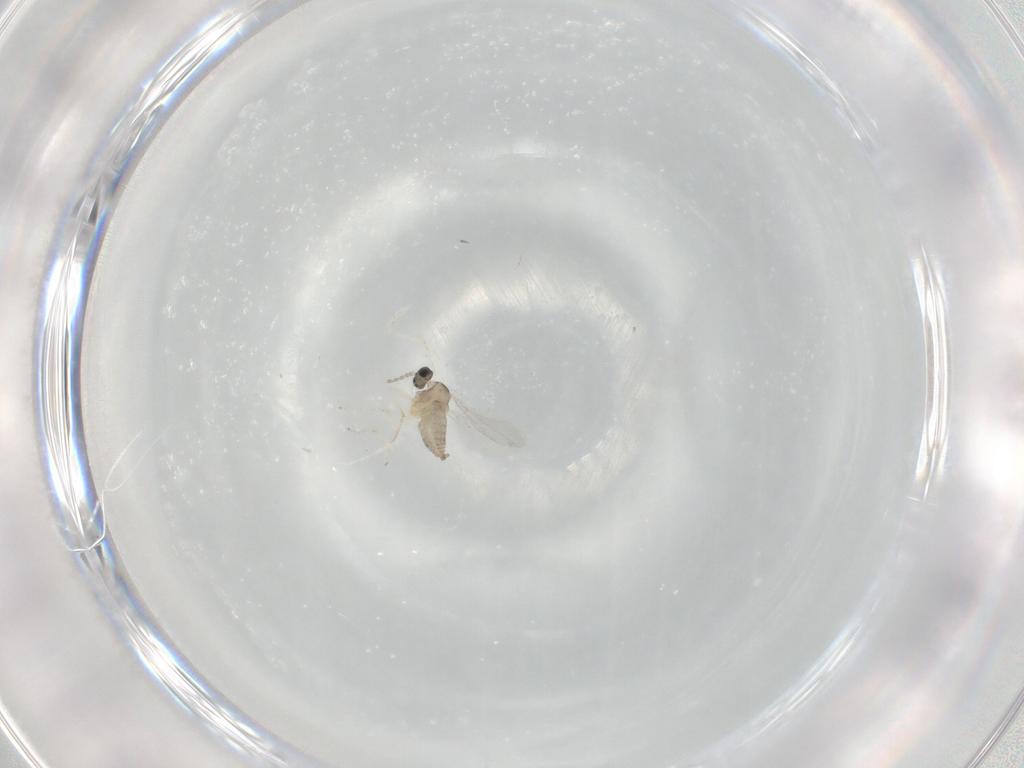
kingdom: Animalia
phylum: Arthropoda
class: Insecta
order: Diptera
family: Cecidomyiidae
